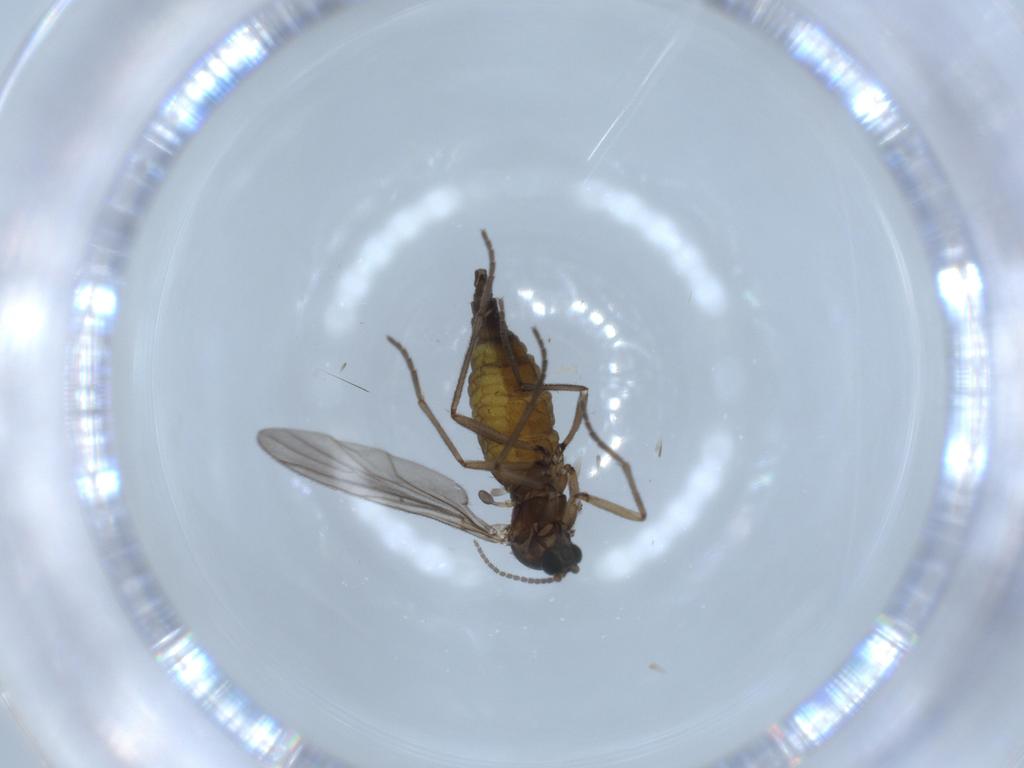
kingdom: Animalia
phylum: Arthropoda
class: Insecta
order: Diptera
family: Sciaridae
